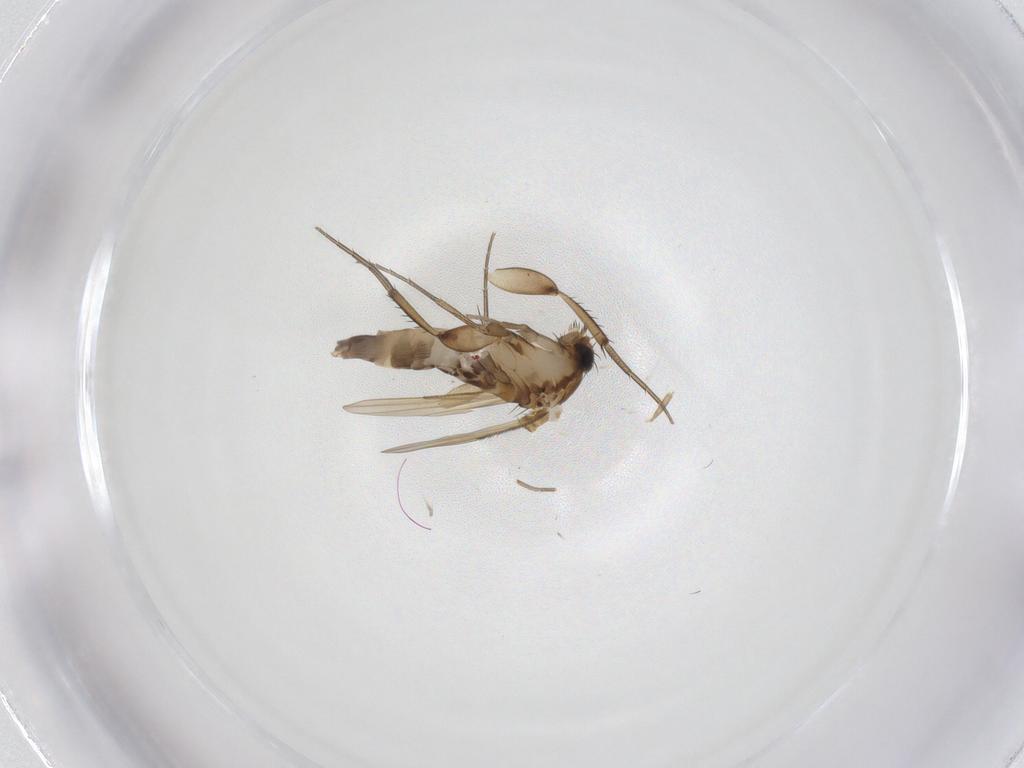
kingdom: Animalia
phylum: Arthropoda
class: Insecta
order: Diptera
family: Phoridae
